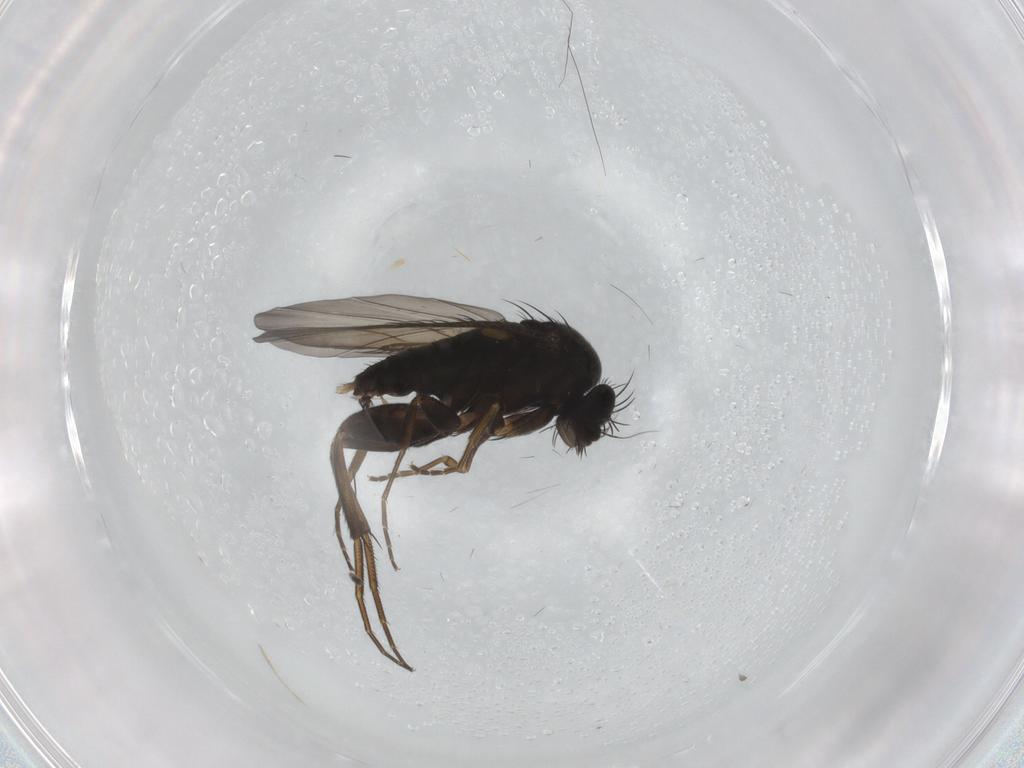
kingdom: Animalia
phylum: Arthropoda
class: Insecta
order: Diptera
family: Phoridae
